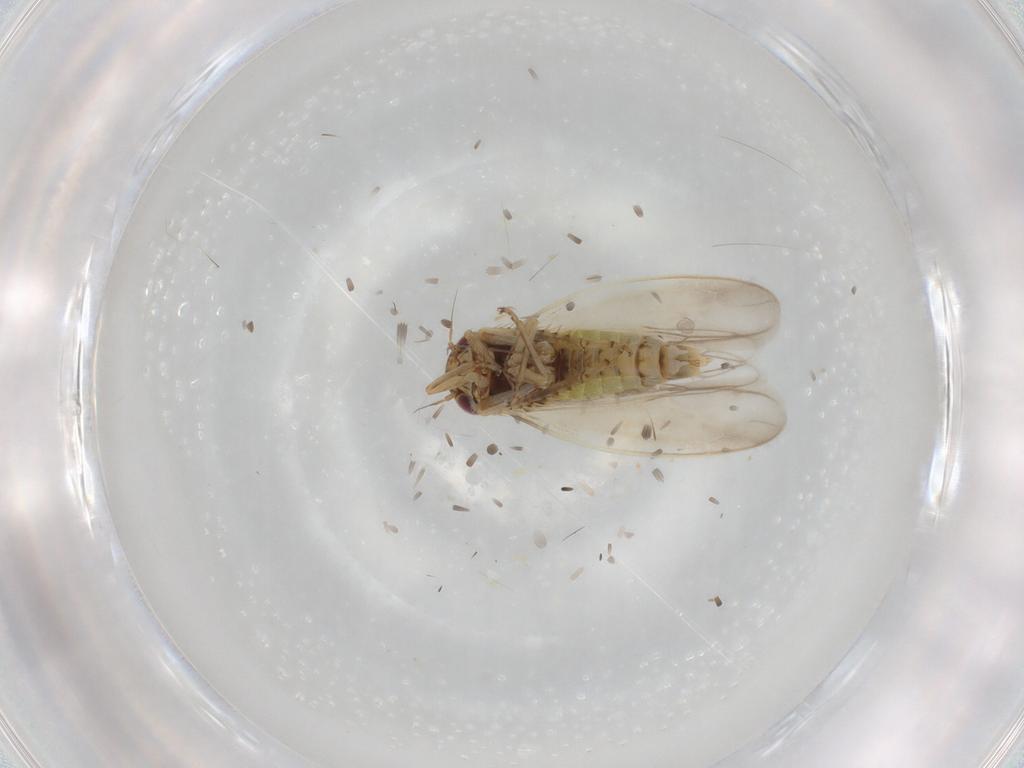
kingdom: Animalia
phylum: Arthropoda
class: Insecta
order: Hemiptera
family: Cicadellidae
